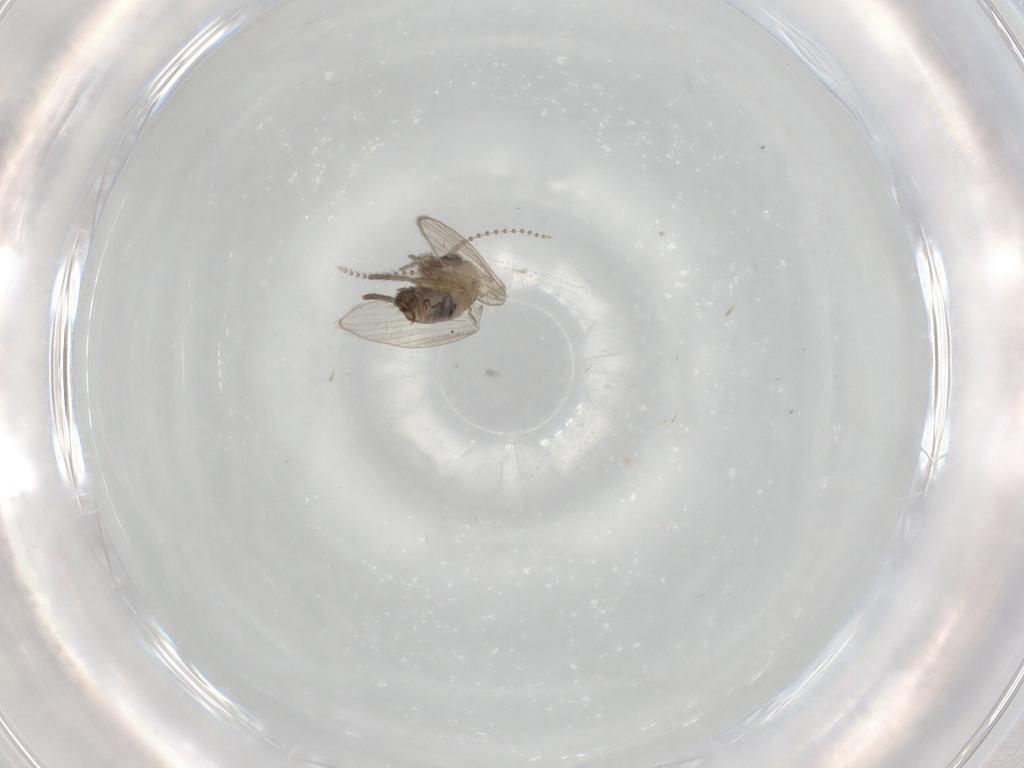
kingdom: Animalia
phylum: Arthropoda
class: Insecta
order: Diptera
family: Psychodidae
